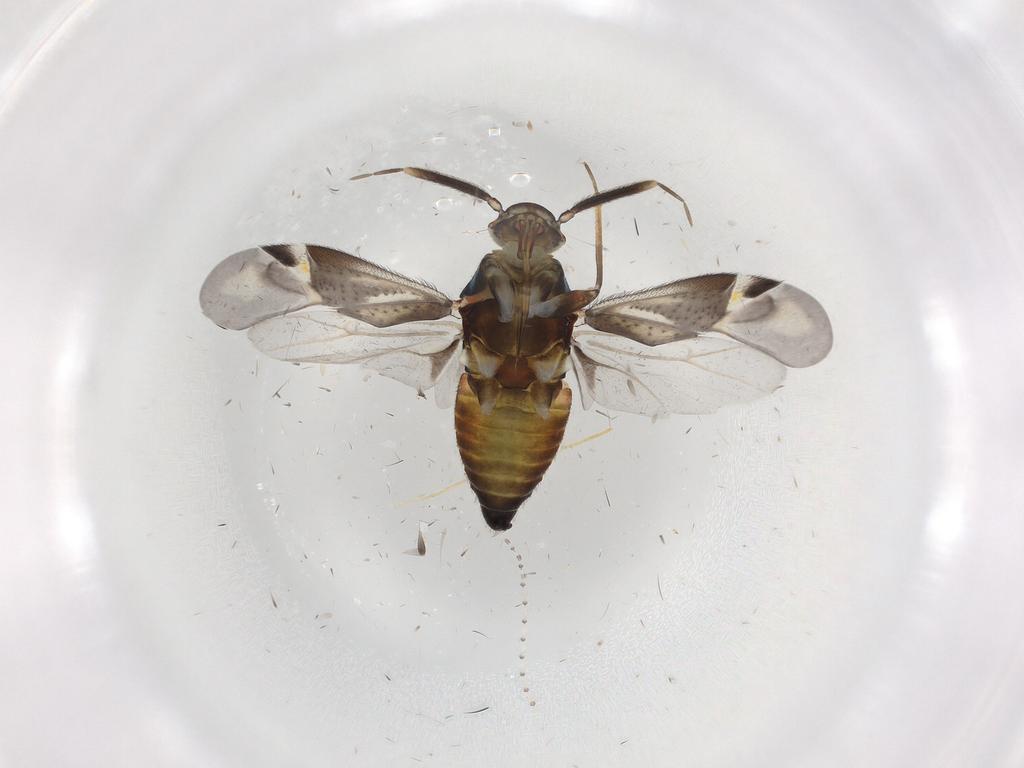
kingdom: Animalia
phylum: Arthropoda
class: Insecta
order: Hemiptera
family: Miridae
